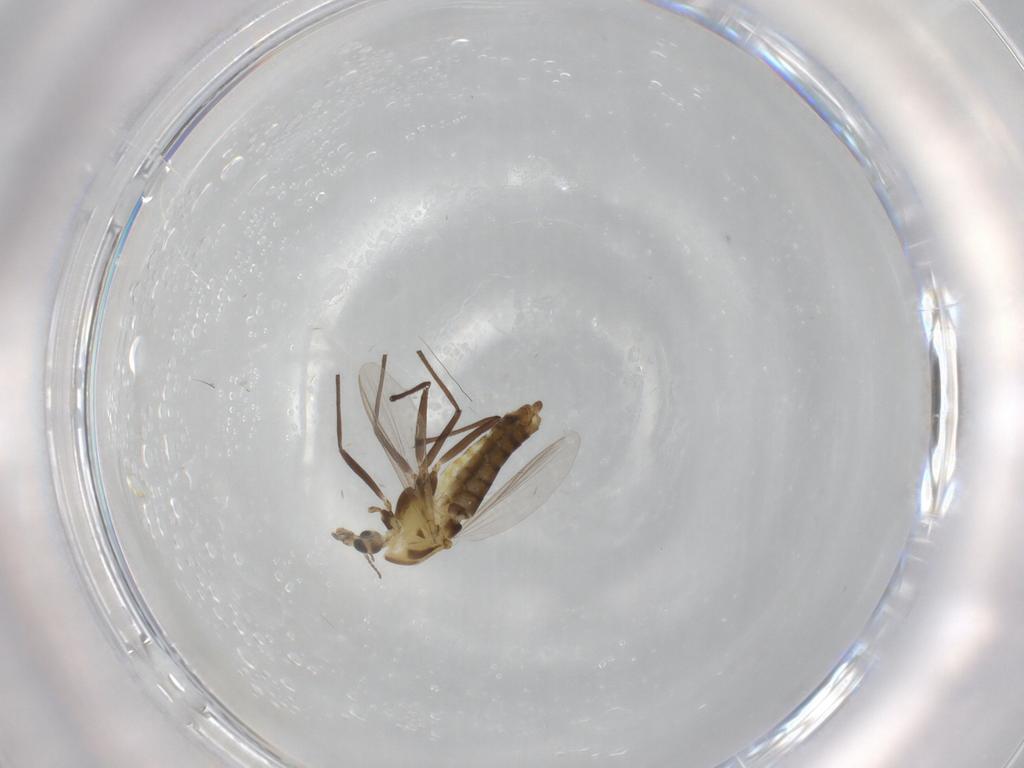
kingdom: Animalia
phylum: Arthropoda
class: Insecta
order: Diptera
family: Chironomidae
